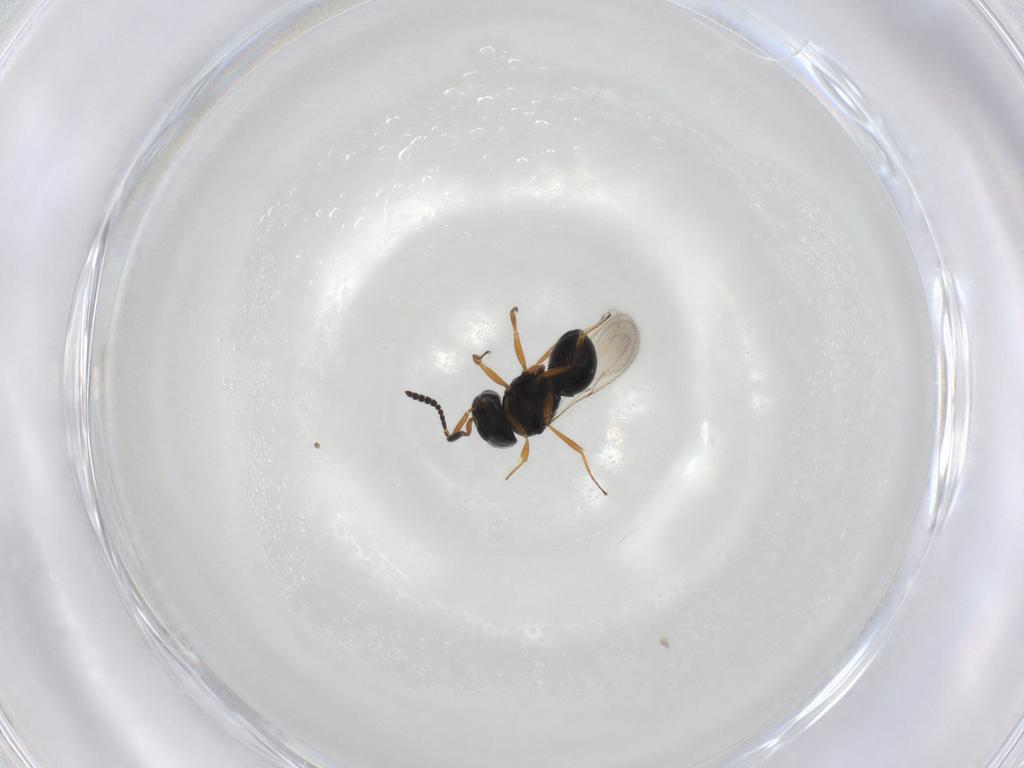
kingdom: Animalia
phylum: Arthropoda
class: Insecta
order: Hymenoptera
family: Scelionidae
